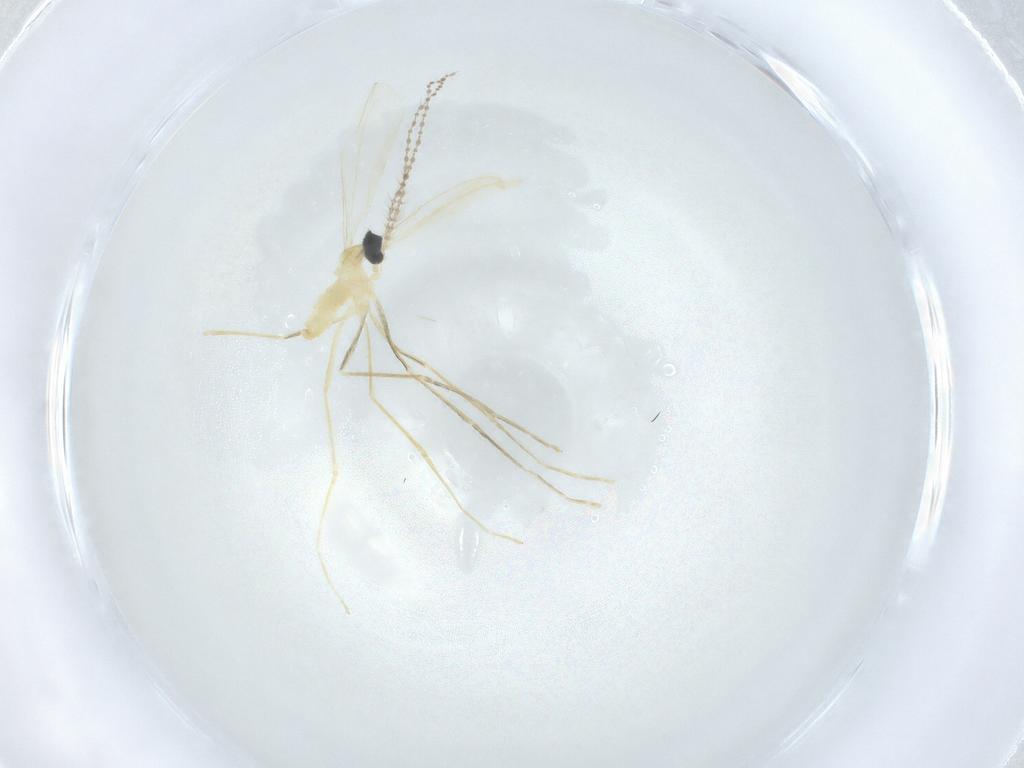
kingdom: Animalia
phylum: Arthropoda
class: Insecta
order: Diptera
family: Cecidomyiidae
